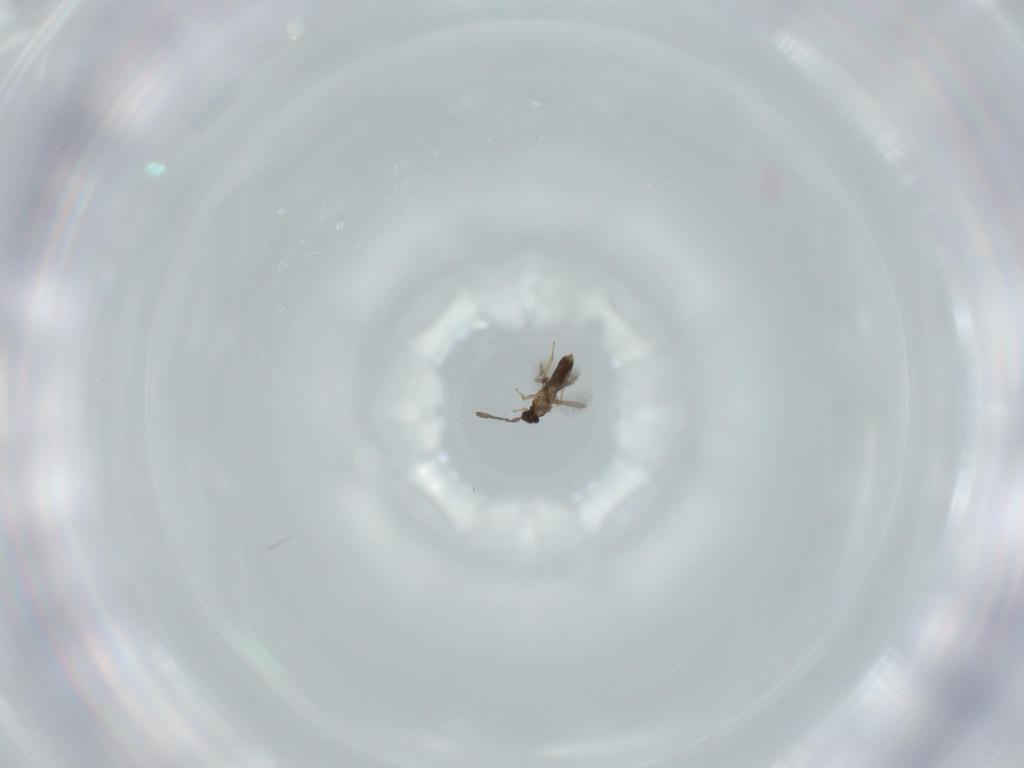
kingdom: Animalia
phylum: Arthropoda
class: Insecta
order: Hymenoptera
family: Mymaridae
